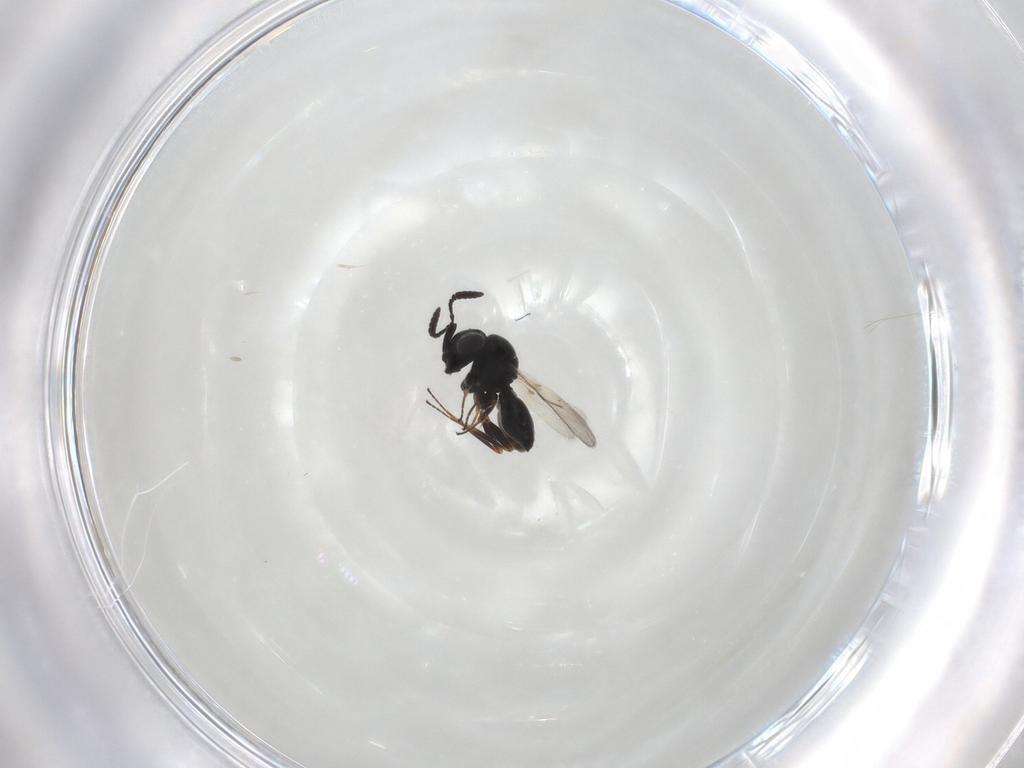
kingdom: Animalia
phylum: Arthropoda
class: Insecta
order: Hymenoptera
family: Scelionidae
